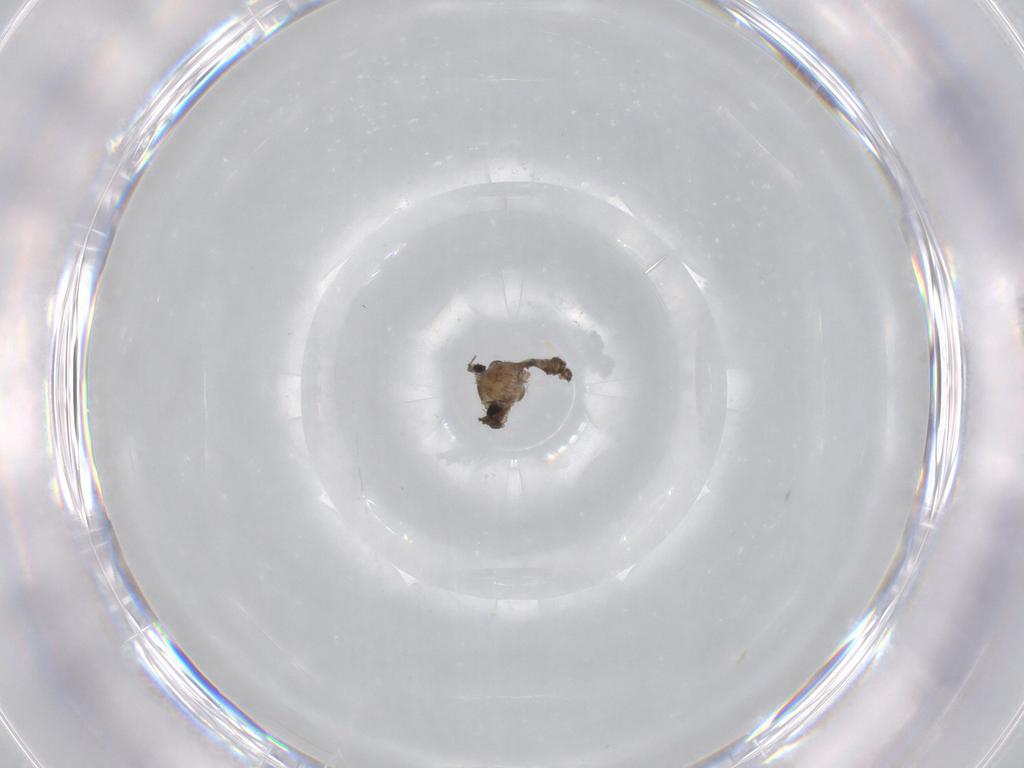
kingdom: Animalia
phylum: Arthropoda
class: Insecta
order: Diptera
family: Cecidomyiidae
